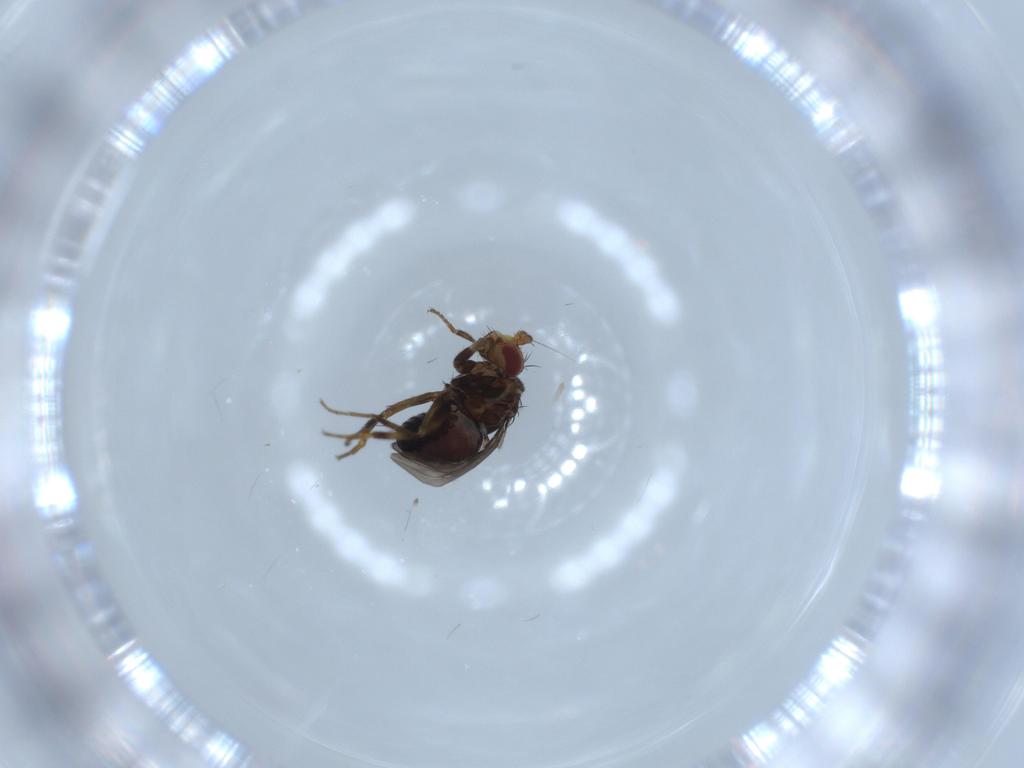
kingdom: Animalia
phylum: Arthropoda
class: Insecta
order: Diptera
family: Sphaeroceridae
